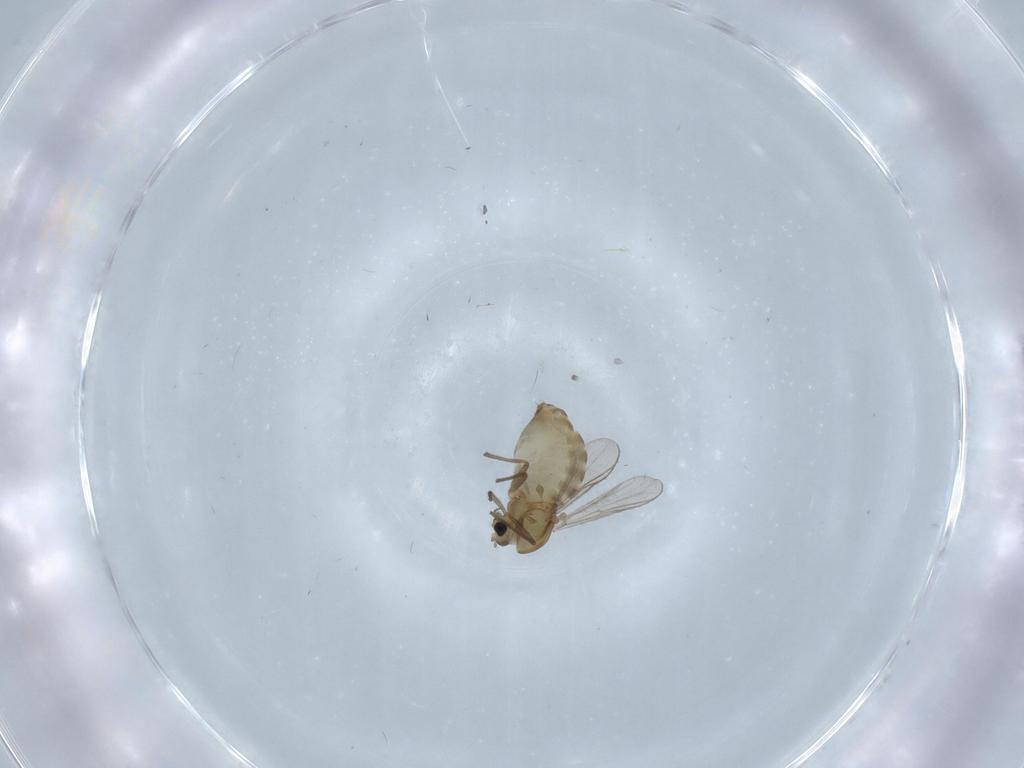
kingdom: Animalia
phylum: Arthropoda
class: Insecta
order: Diptera
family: Chironomidae
